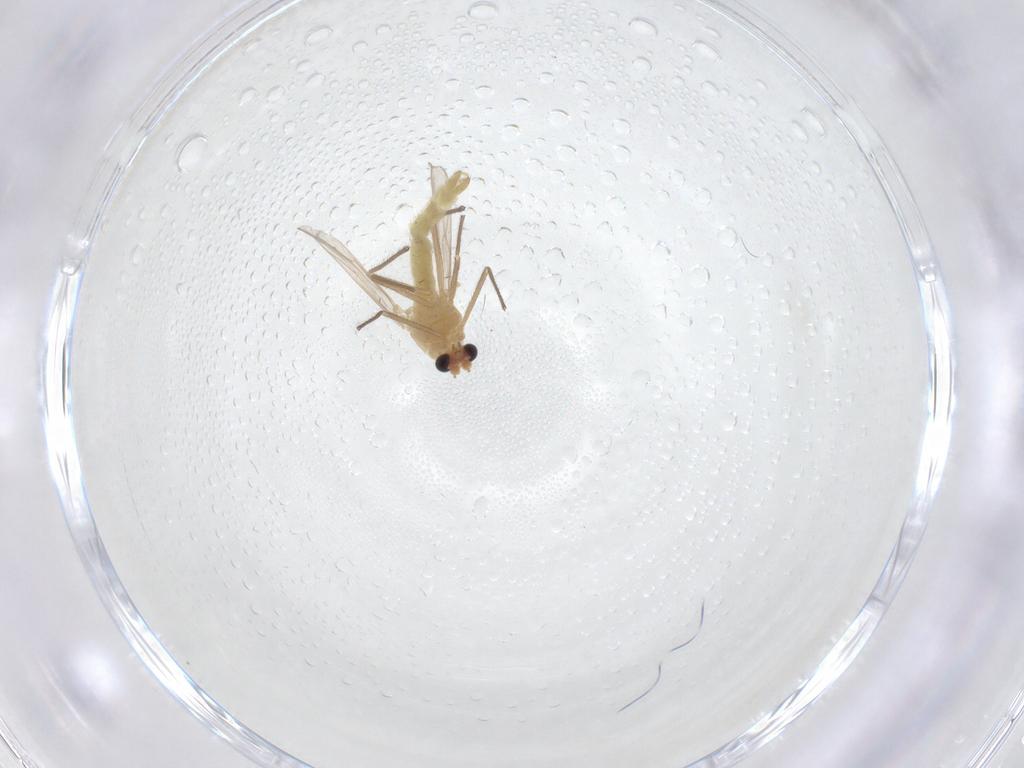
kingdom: Animalia
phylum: Arthropoda
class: Insecta
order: Diptera
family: Chironomidae
